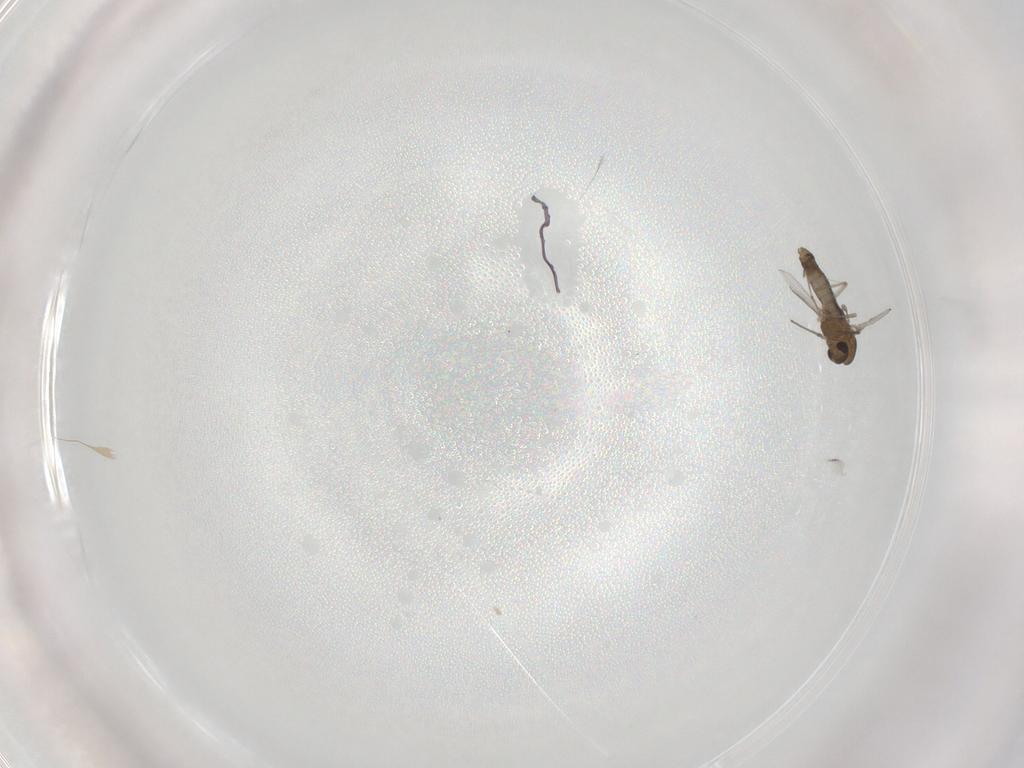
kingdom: Animalia
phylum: Arthropoda
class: Insecta
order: Diptera
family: Chironomidae
